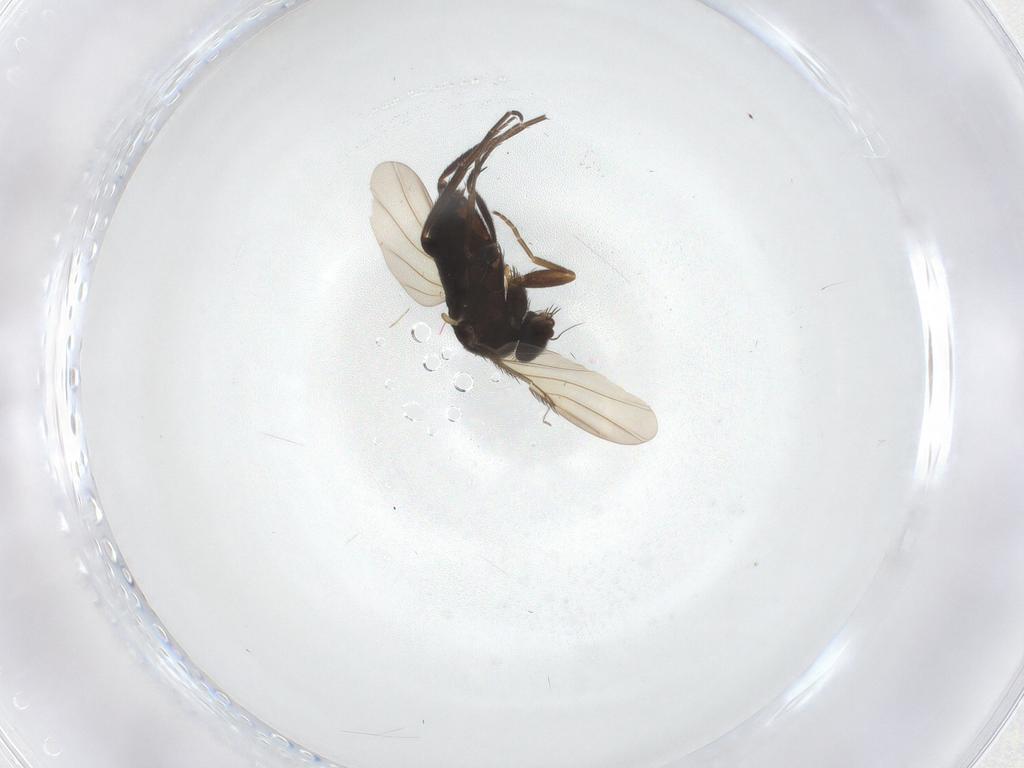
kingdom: Animalia
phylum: Arthropoda
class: Insecta
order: Diptera
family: Phoridae
